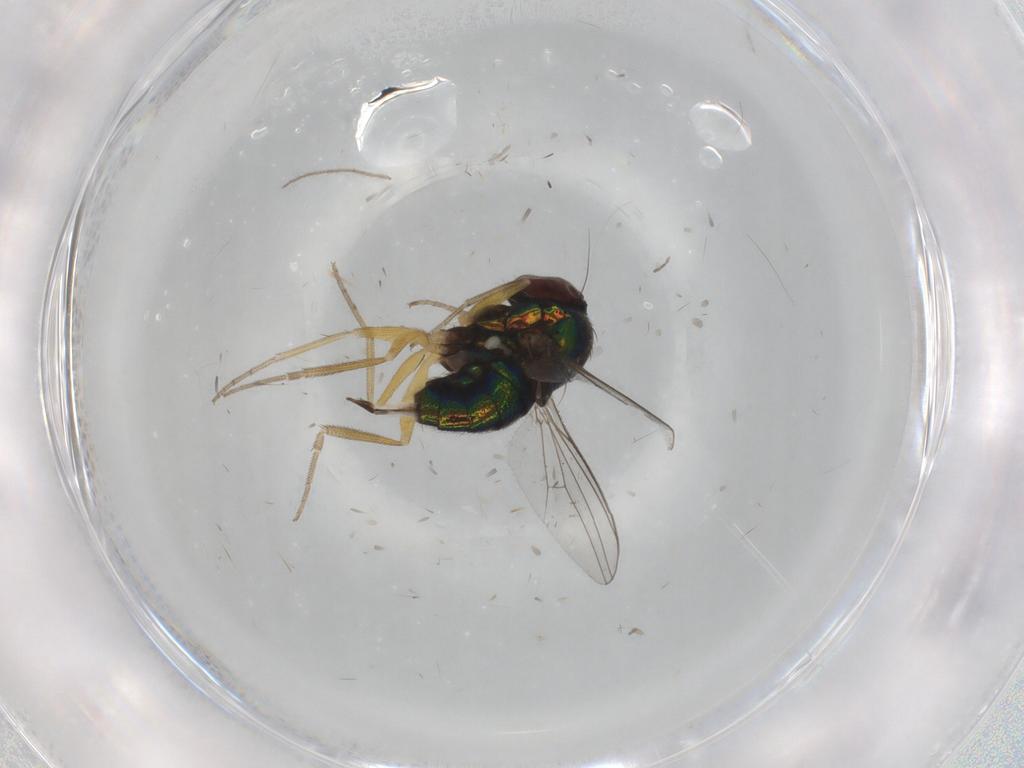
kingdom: Animalia
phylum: Arthropoda
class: Insecta
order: Diptera
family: Dolichopodidae
